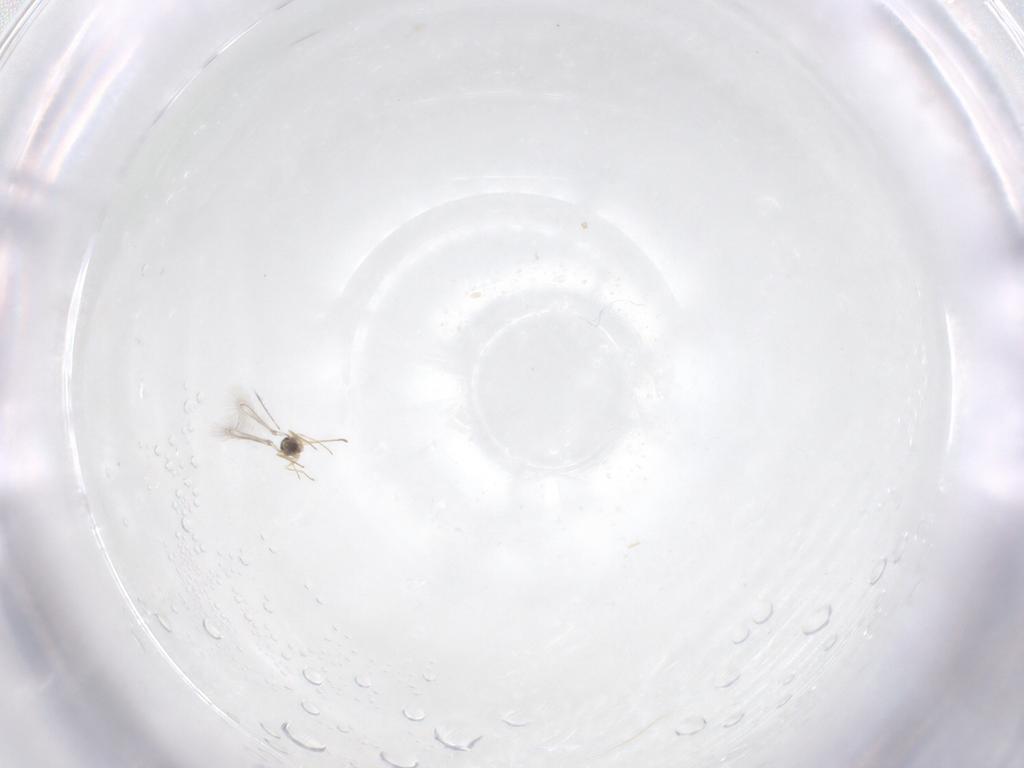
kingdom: Animalia
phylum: Arthropoda
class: Insecta
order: Hymenoptera
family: Mymaridae
